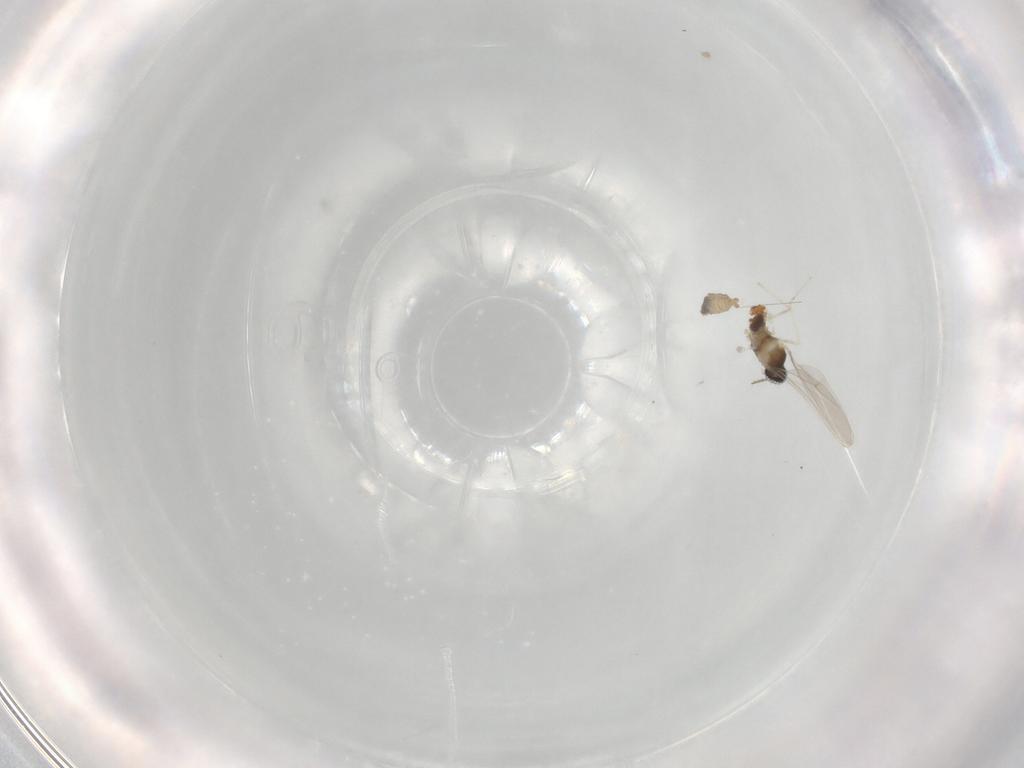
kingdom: Animalia
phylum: Arthropoda
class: Insecta
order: Diptera
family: Cecidomyiidae
